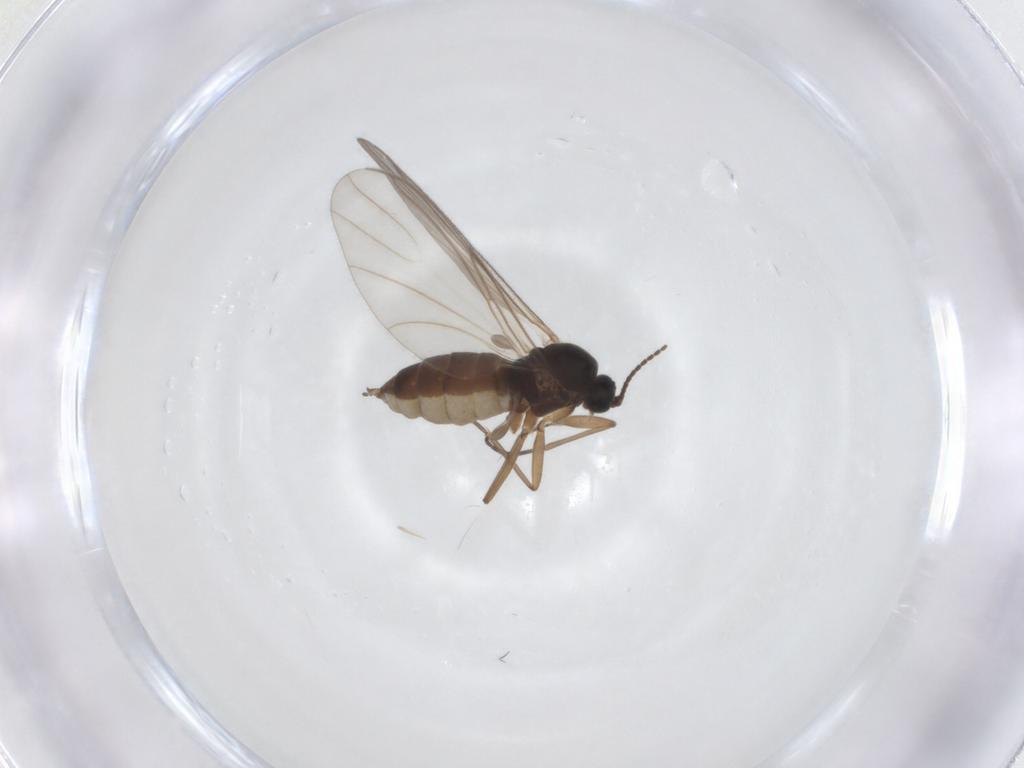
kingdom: Animalia
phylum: Arthropoda
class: Insecta
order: Diptera
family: Sciaridae
